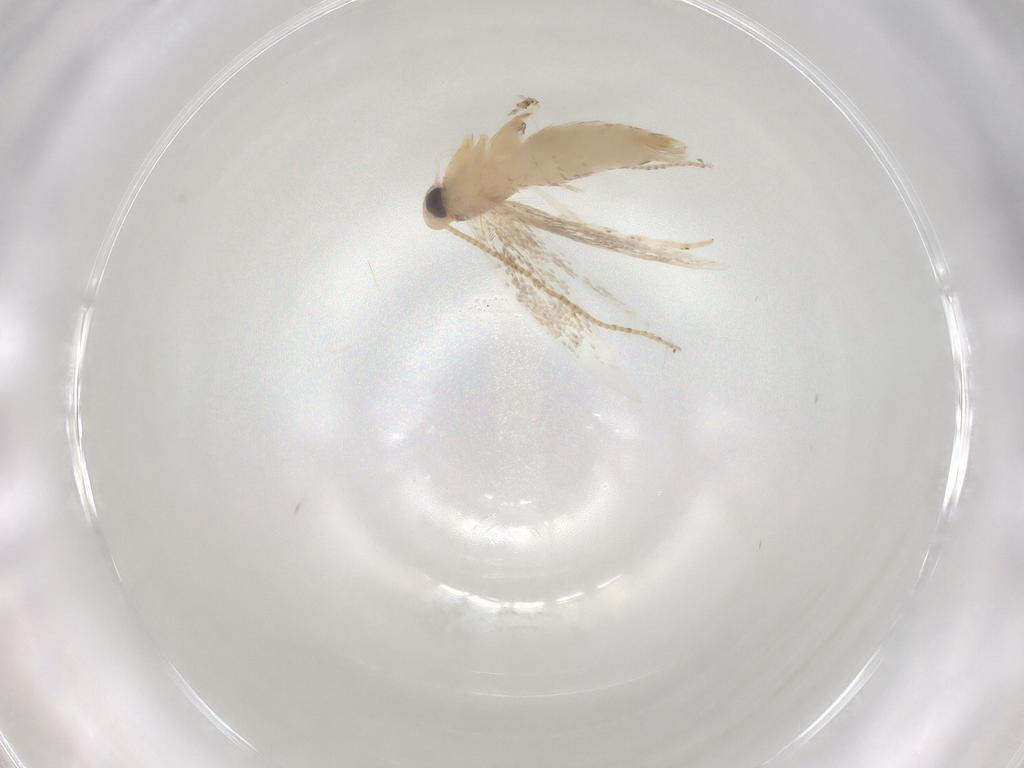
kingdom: Animalia
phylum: Arthropoda
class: Insecta
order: Lepidoptera
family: Gracillariidae
